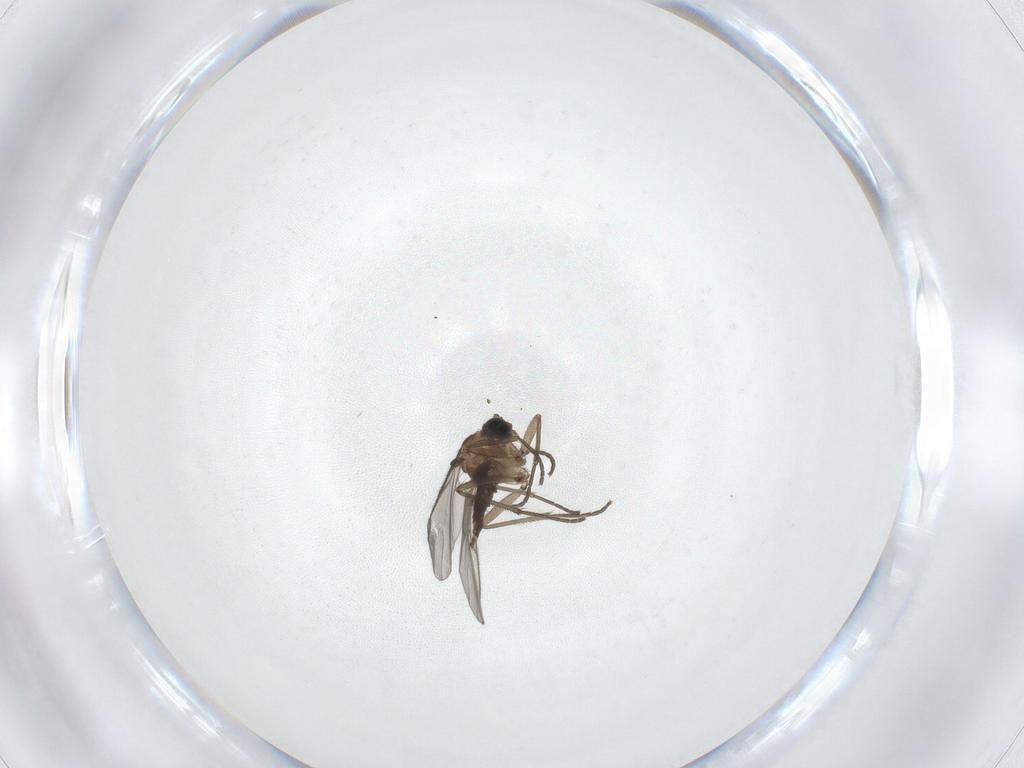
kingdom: Animalia
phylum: Arthropoda
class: Insecta
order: Diptera
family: Sciaridae
